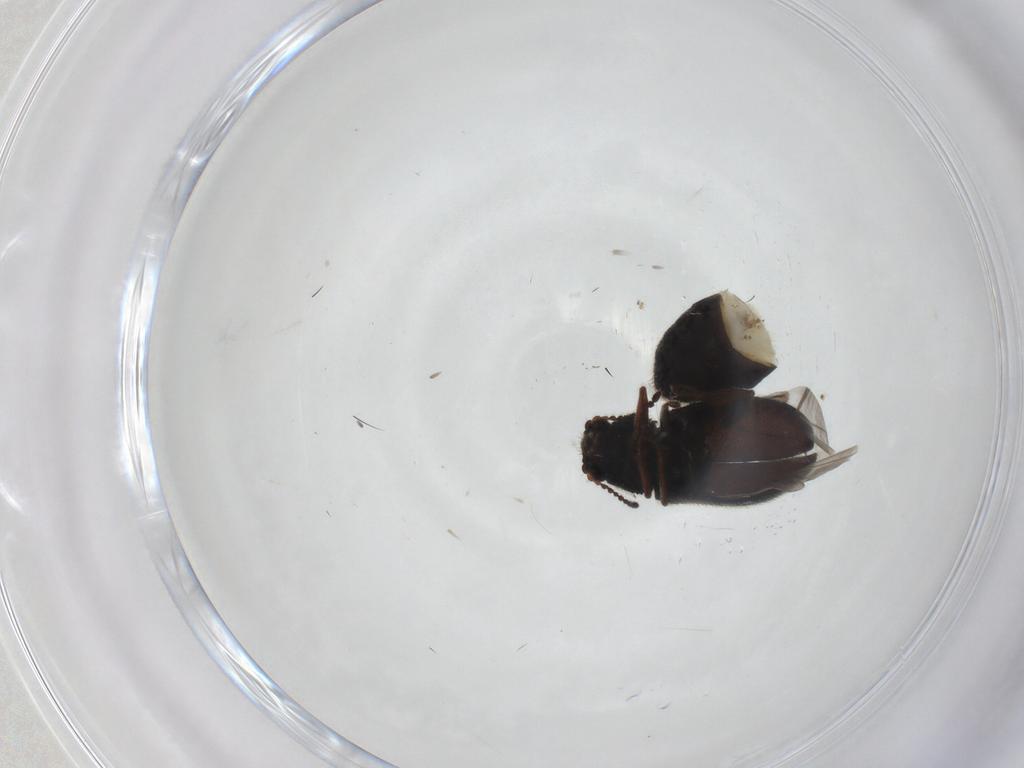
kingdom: Animalia
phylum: Arthropoda
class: Insecta
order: Coleoptera
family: Melyridae
